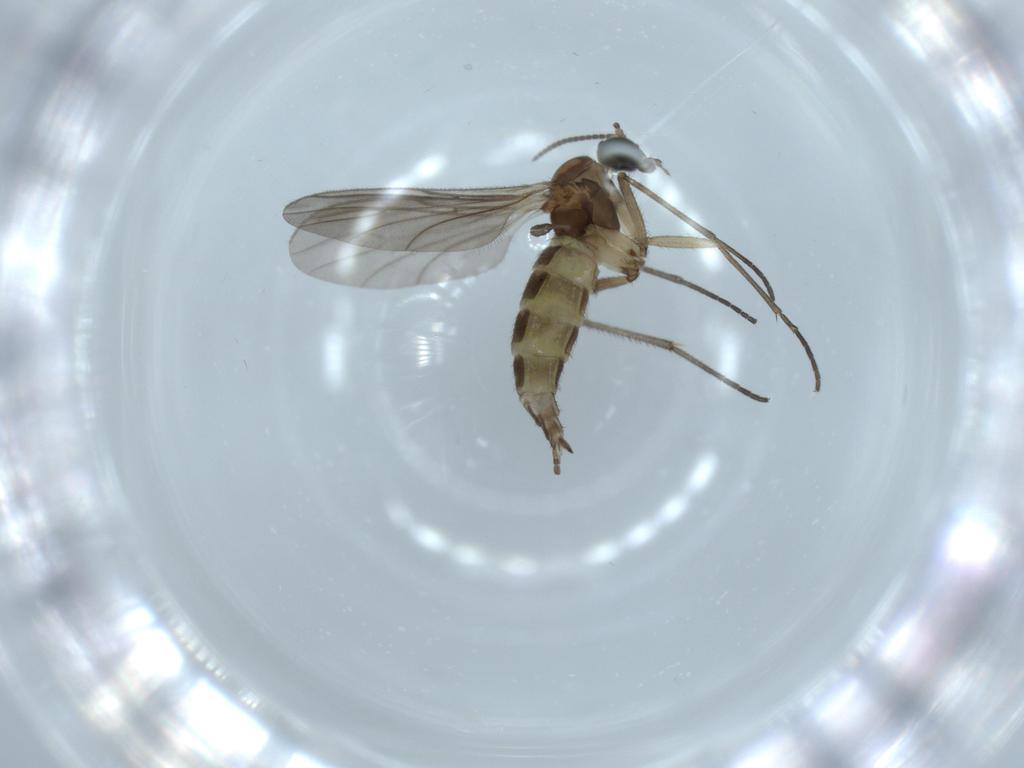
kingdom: Animalia
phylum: Arthropoda
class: Insecta
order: Diptera
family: Sciaridae
